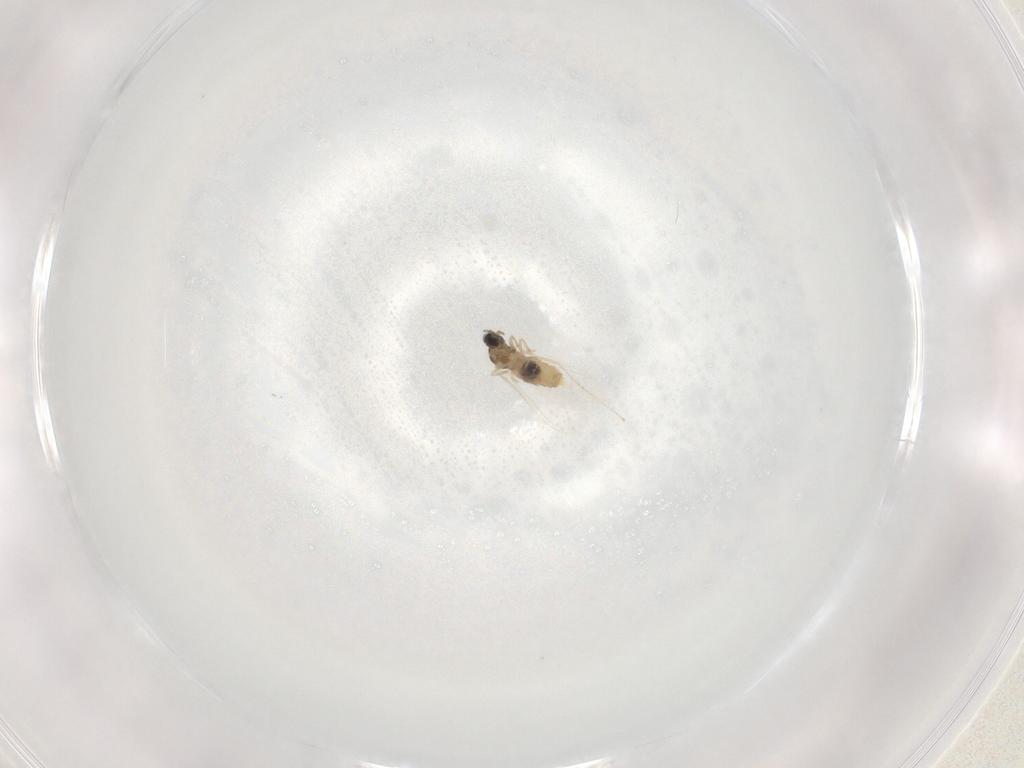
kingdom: Animalia
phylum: Arthropoda
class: Insecta
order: Diptera
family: Cecidomyiidae
